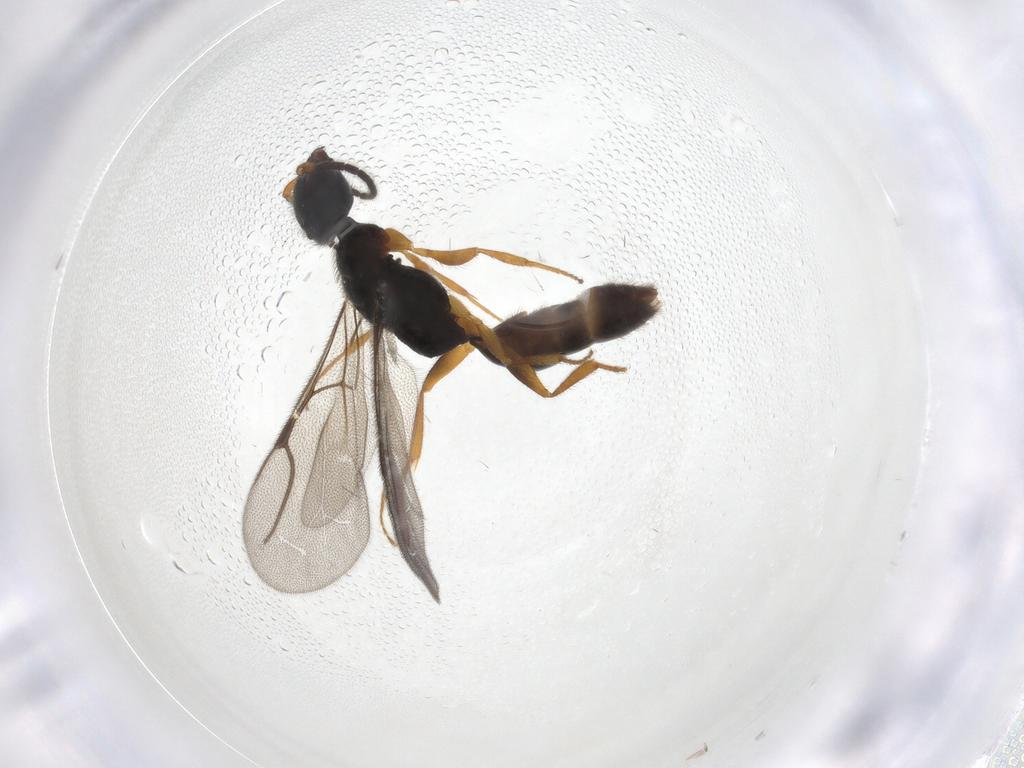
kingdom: Animalia
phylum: Arthropoda
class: Insecta
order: Hymenoptera
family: Bethylidae
